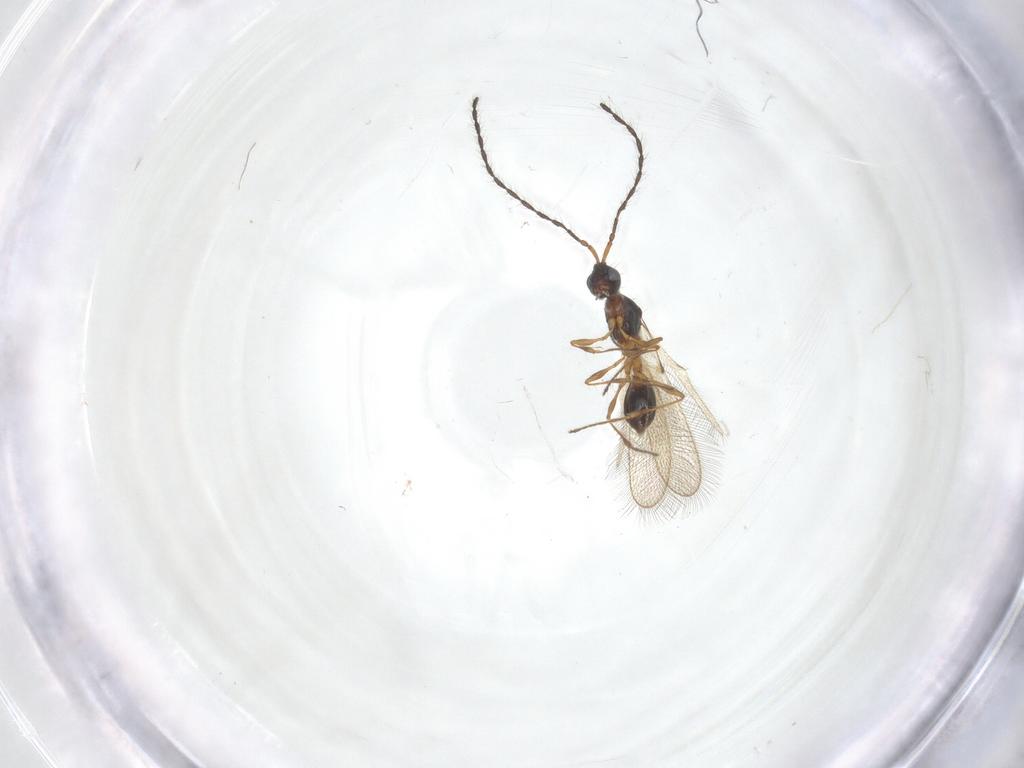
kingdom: Animalia
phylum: Arthropoda
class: Insecta
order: Hymenoptera
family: Diapriidae
